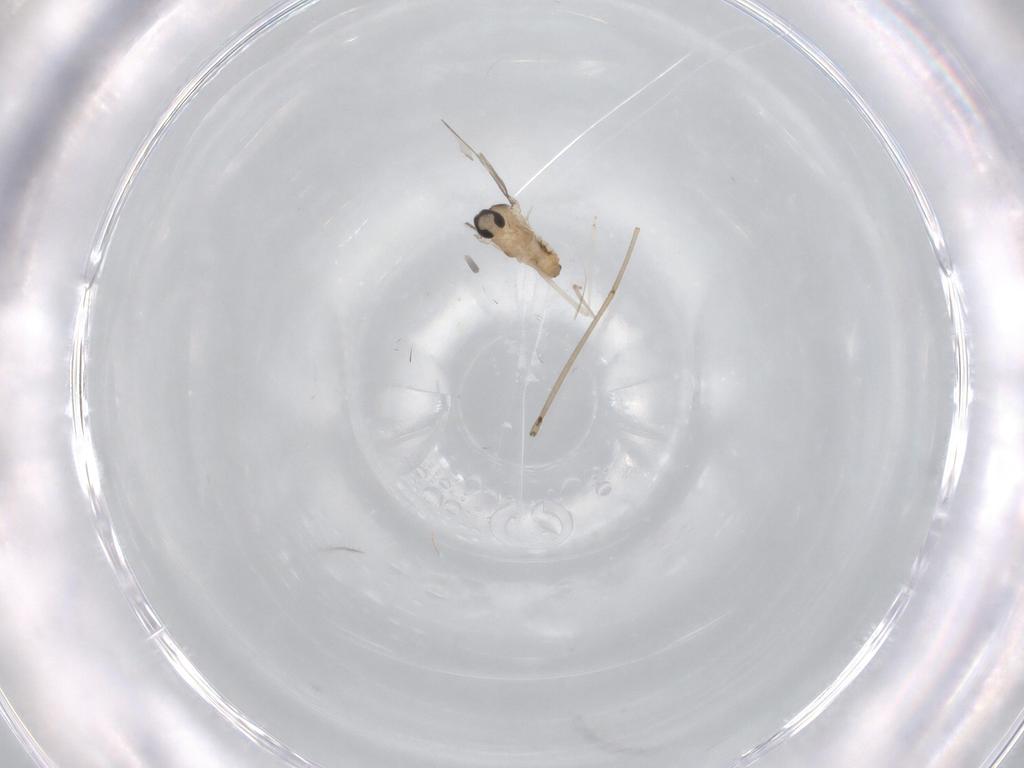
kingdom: Animalia
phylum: Arthropoda
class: Insecta
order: Diptera
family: Cecidomyiidae
